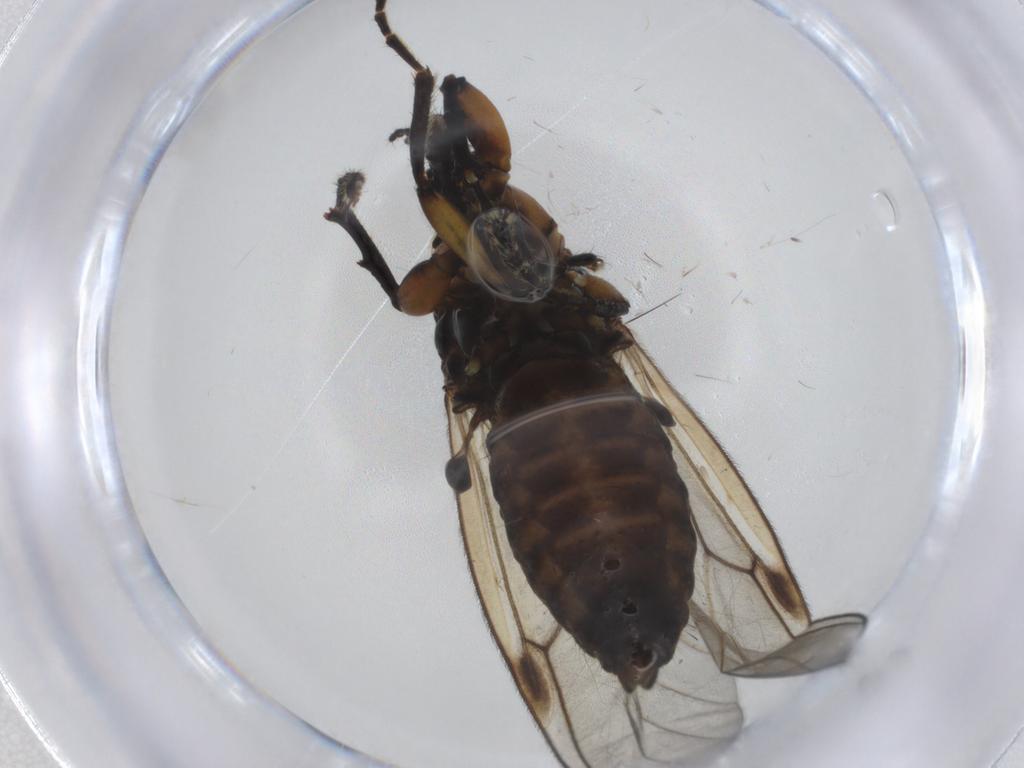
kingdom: Animalia
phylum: Arthropoda
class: Insecta
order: Diptera
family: Bibionidae
